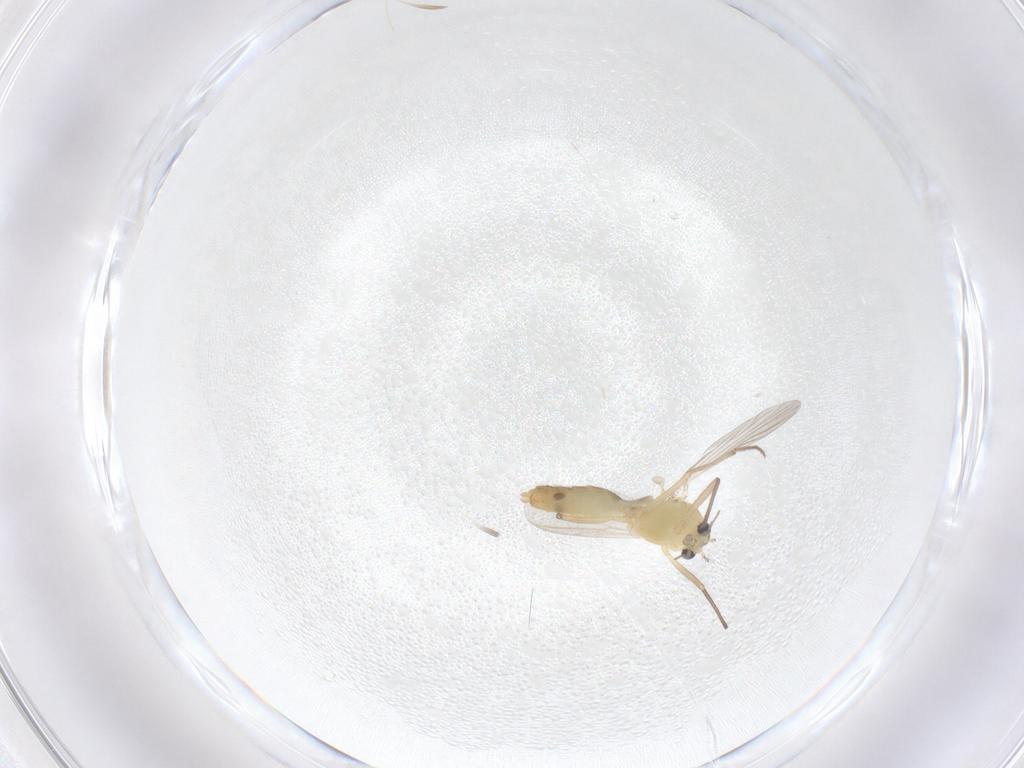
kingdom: Animalia
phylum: Arthropoda
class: Insecta
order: Diptera
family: Chironomidae
